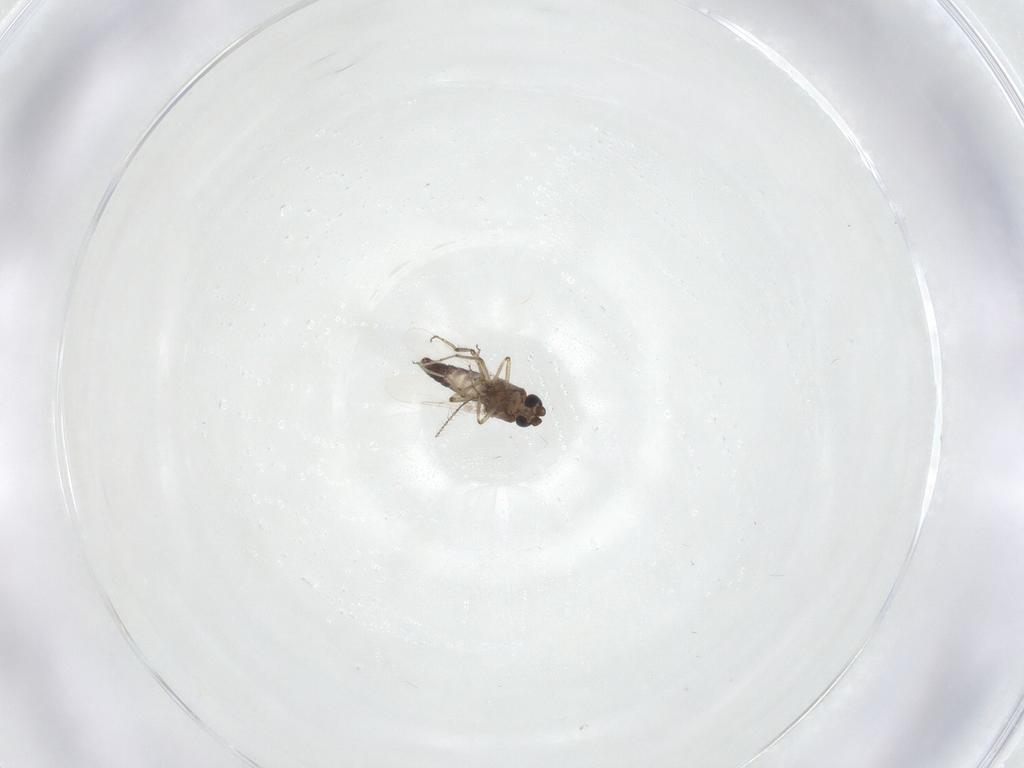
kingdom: Animalia
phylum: Arthropoda
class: Insecta
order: Diptera
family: Ceratopogonidae
